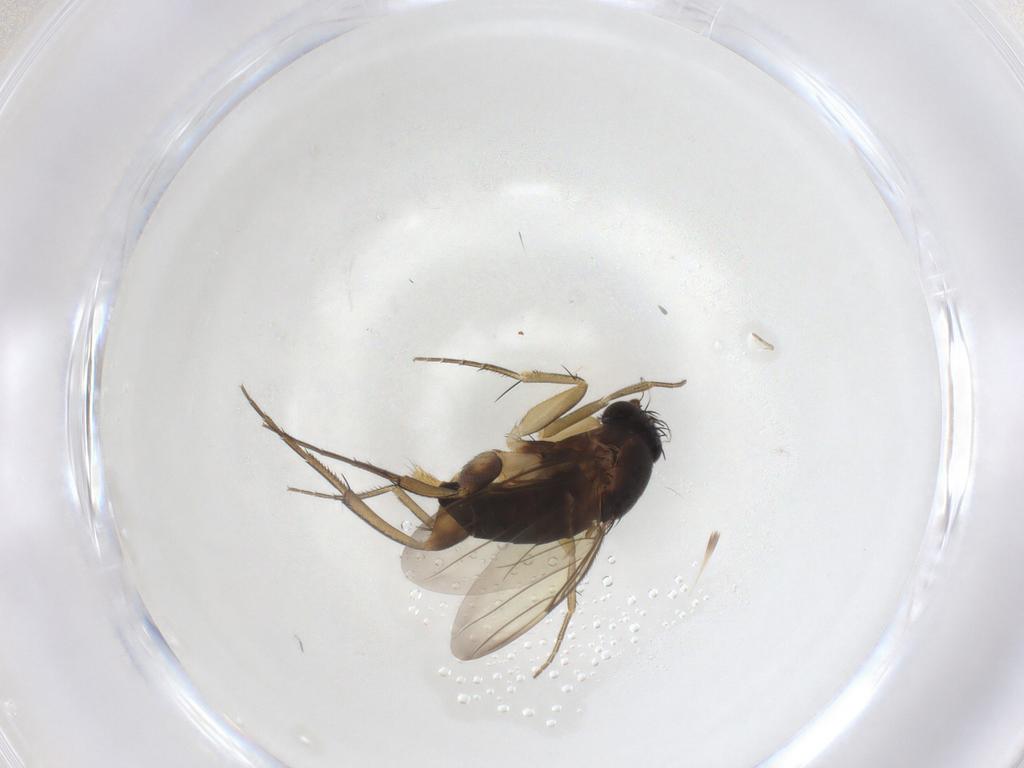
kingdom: Animalia
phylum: Arthropoda
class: Insecta
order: Diptera
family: Phoridae
